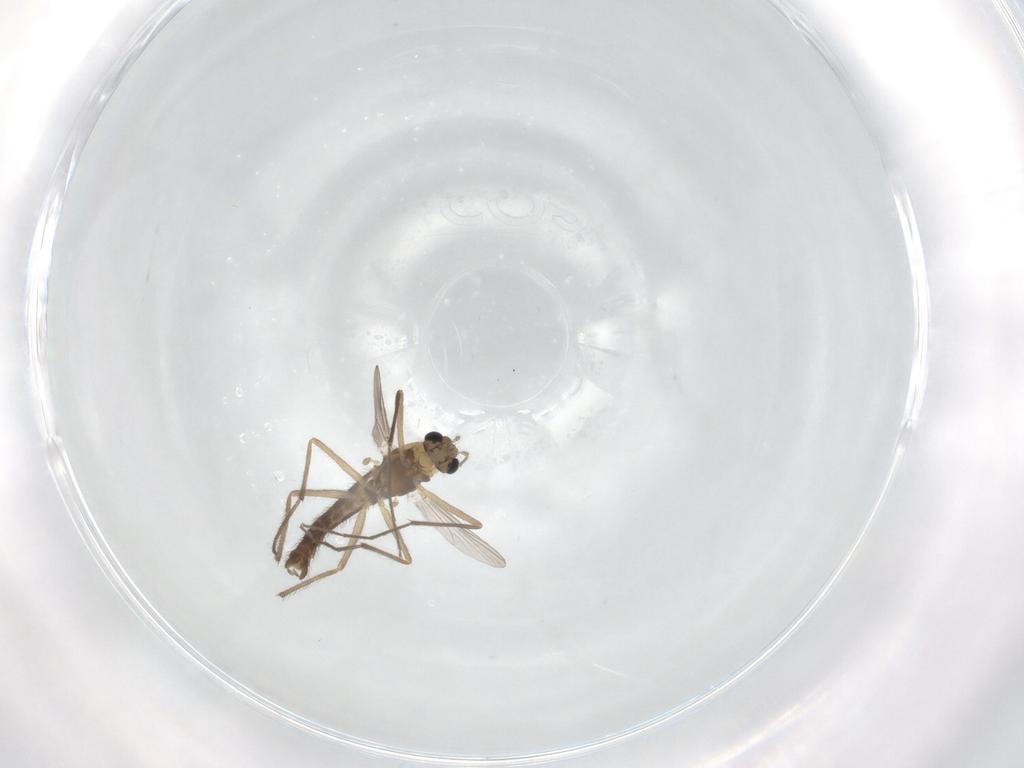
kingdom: Animalia
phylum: Arthropoda
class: Insecta
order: Diptera
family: Chironomidae
